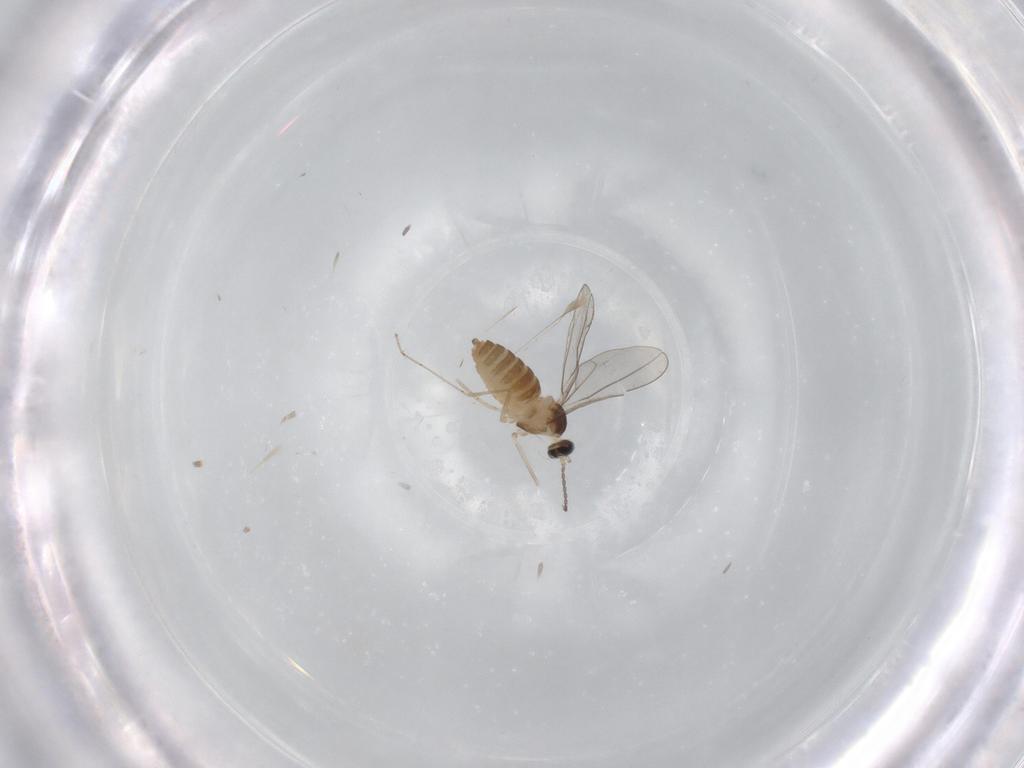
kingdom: Animalia
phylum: Arthropoda
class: Insecta
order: Diptera
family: Cecidomyiidae
